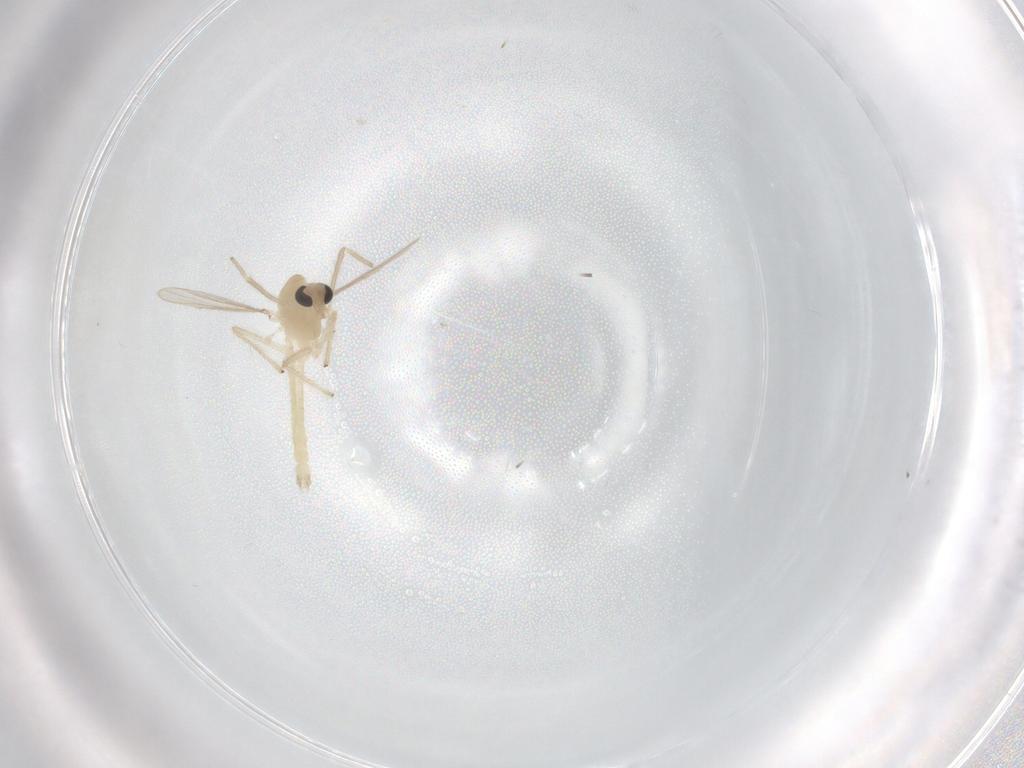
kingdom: Animalia
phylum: Arthropoda
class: Insecta
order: Diptera
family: Chironomidae
